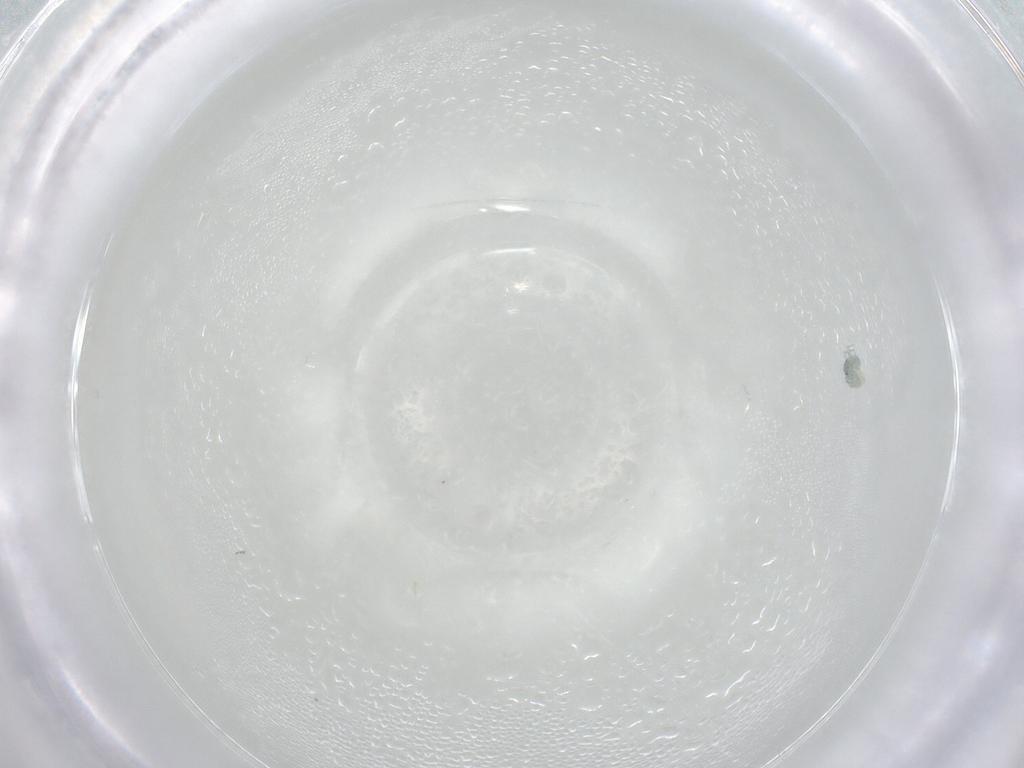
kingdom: Animalia
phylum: Arthropoda
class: Arachnida
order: Trombidiformes
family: Arrenuridae
